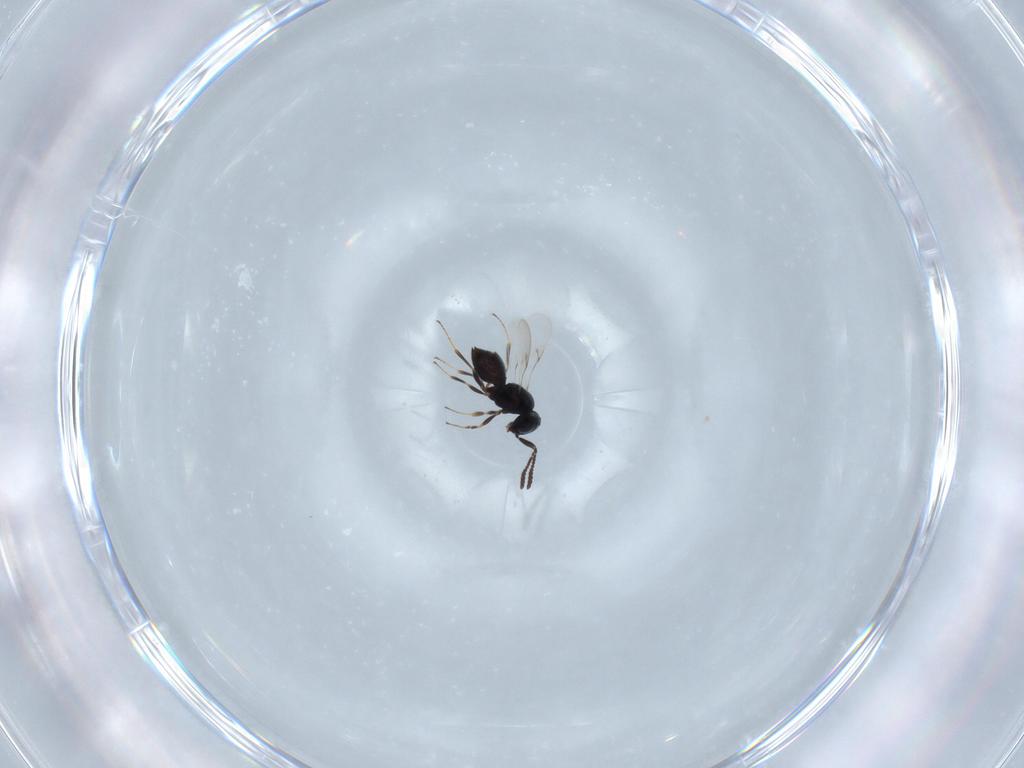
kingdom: Animalia
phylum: Arthropoda
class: Insecta
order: Hymenoptera
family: Scelionidae
